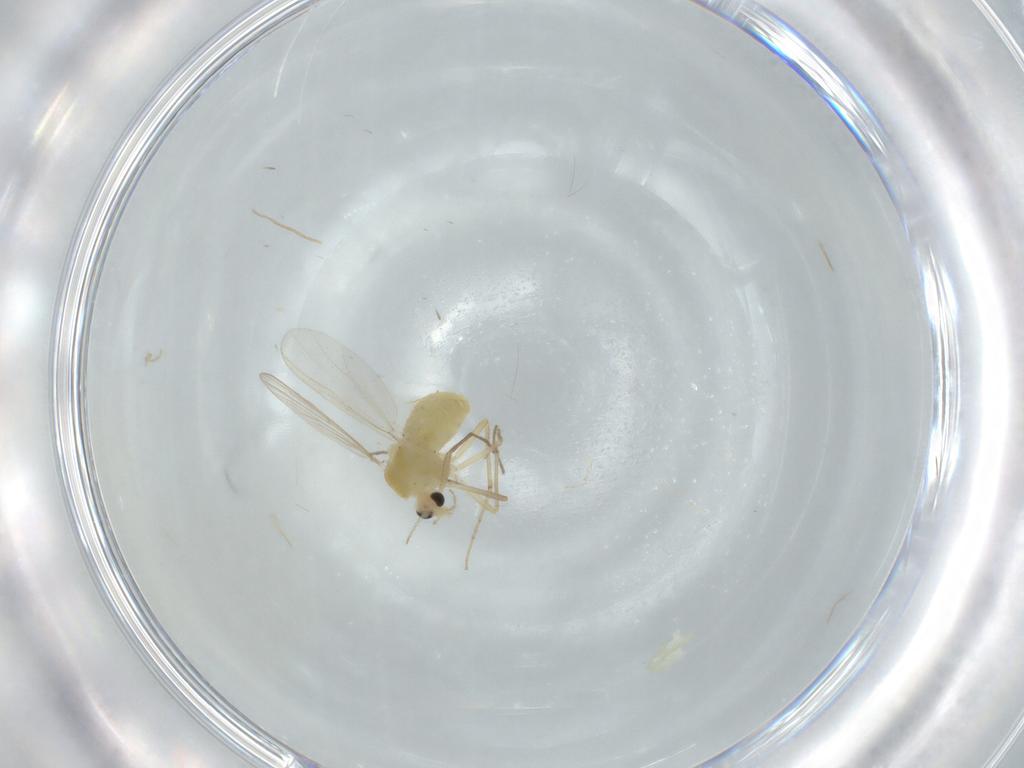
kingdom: Animalia
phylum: Arthropoda
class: Insecta
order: Diptera
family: Chironomidae
